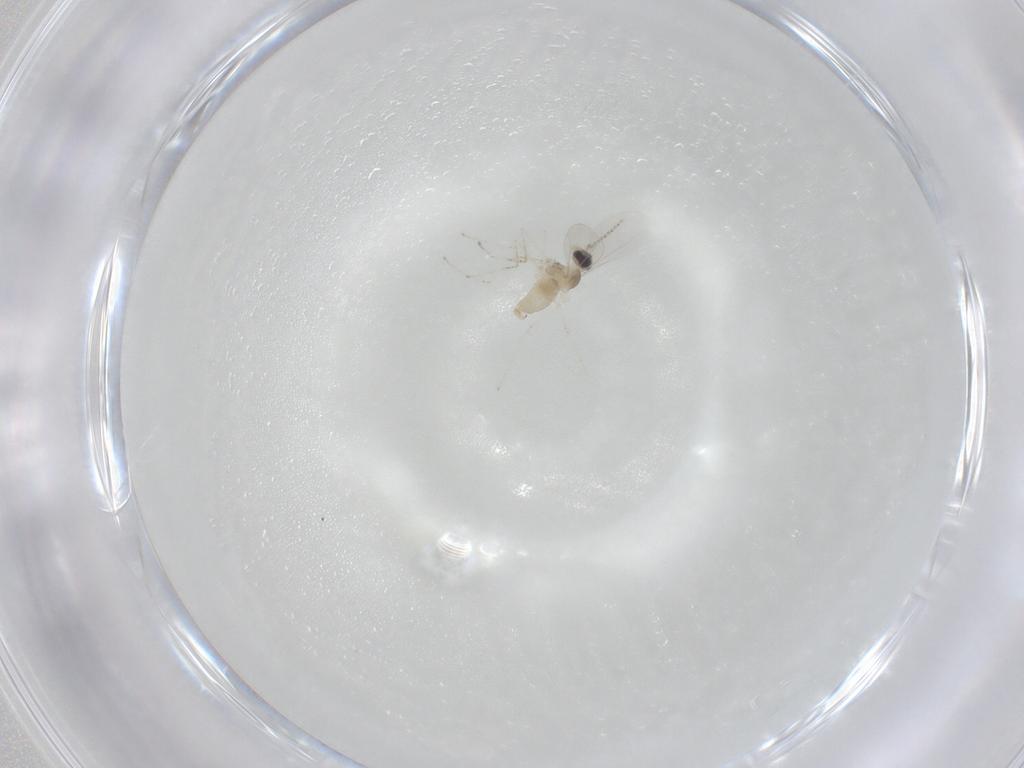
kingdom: Animalia
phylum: Arthropoda
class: Insecta
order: Diptera
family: Cecidomyiidae
